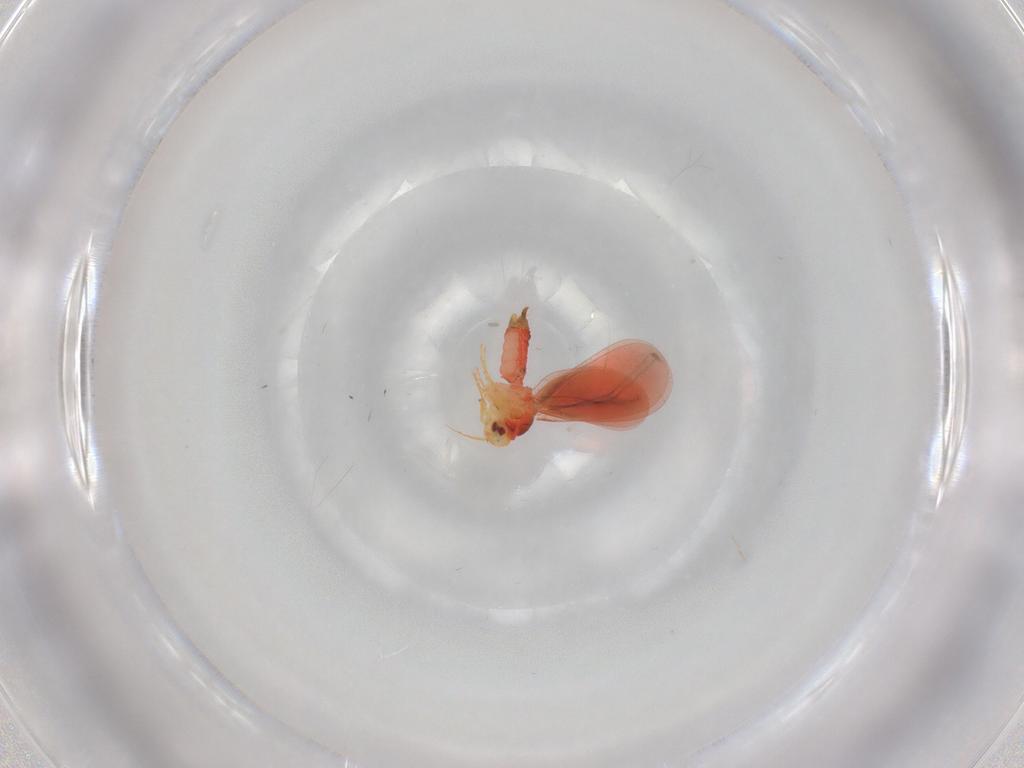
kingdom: Animalia
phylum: Arthropoda
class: Insecta
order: Hemiptera
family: Aleyrodidae
